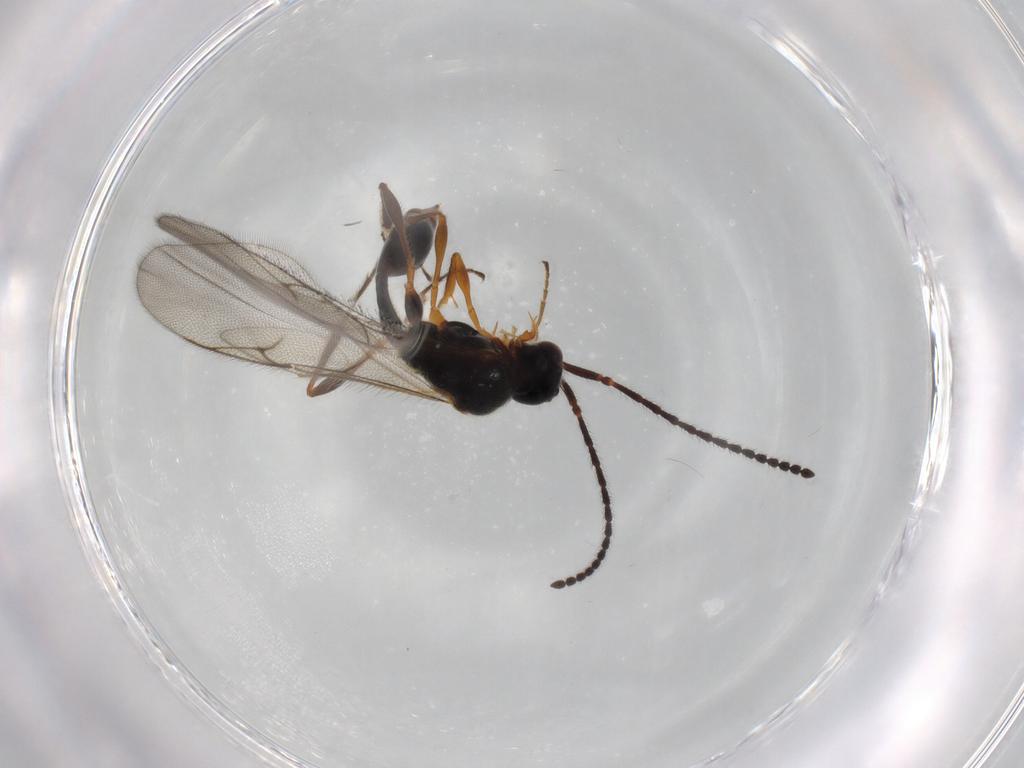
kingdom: Animalia
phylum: Arthropoda
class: Insecta
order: Hymenoptera
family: Diapriidae
